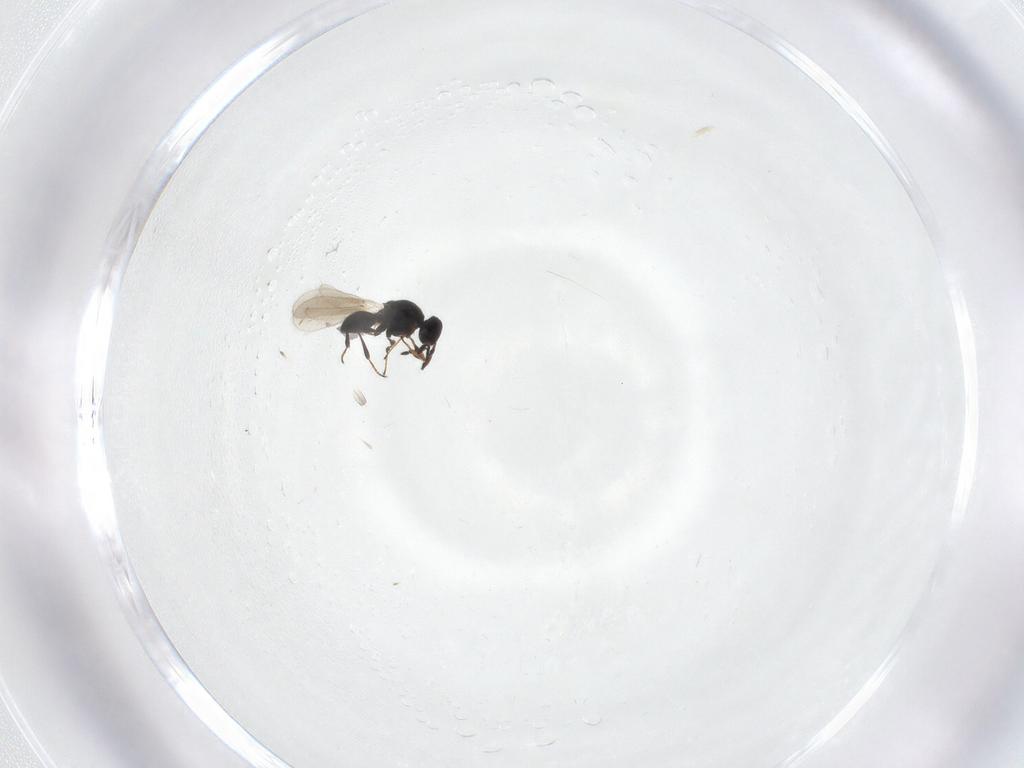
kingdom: Animalia
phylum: Arthropoda
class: Insecta
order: Hymenoptera
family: Platygastridae
